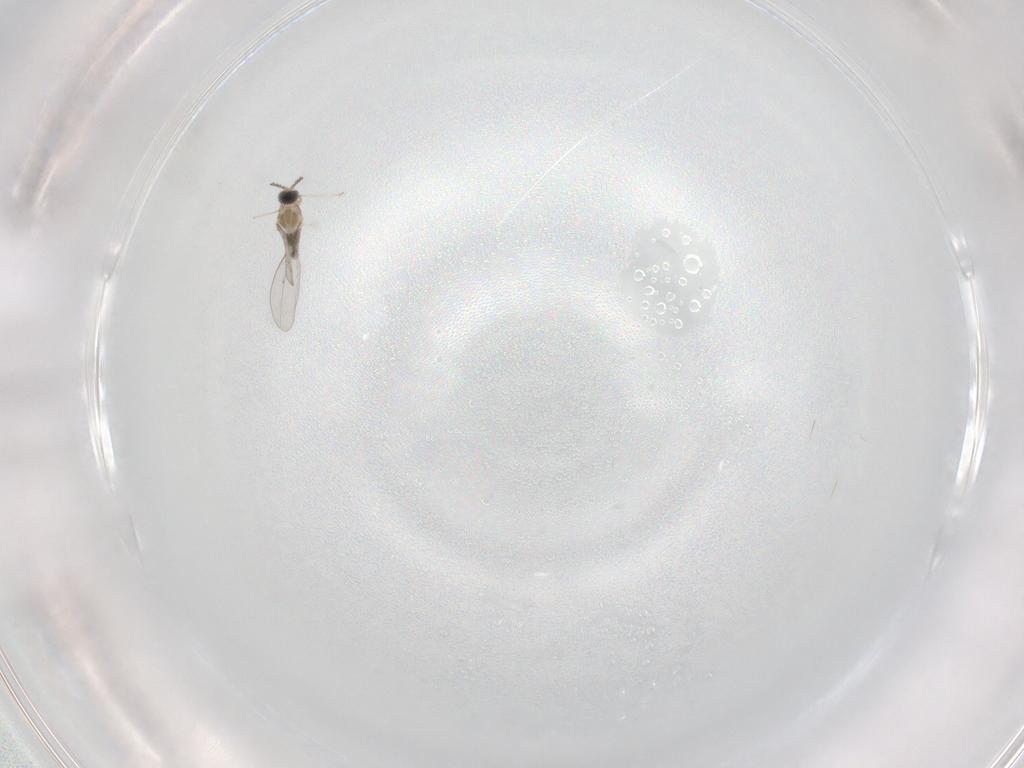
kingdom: Animalia
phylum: Arthropoda
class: Insecta
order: Diptera
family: Cecidomyiidae
